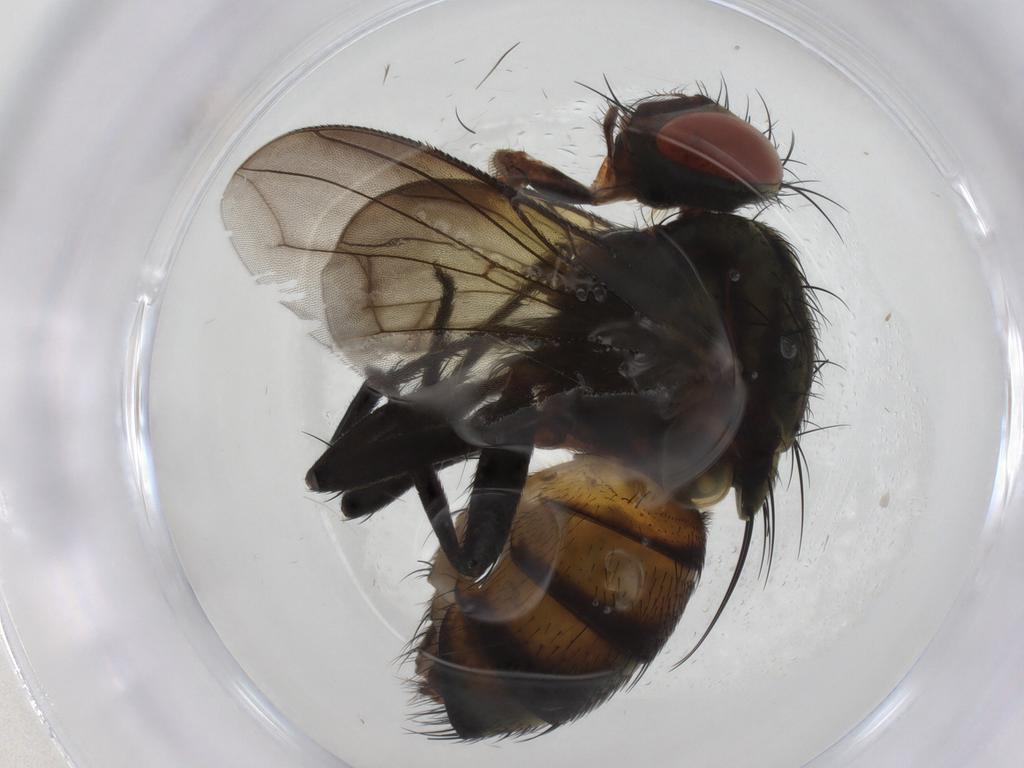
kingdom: Animalia
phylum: Arthropoda
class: Insecta
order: Diptera
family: Sarcophagidae
